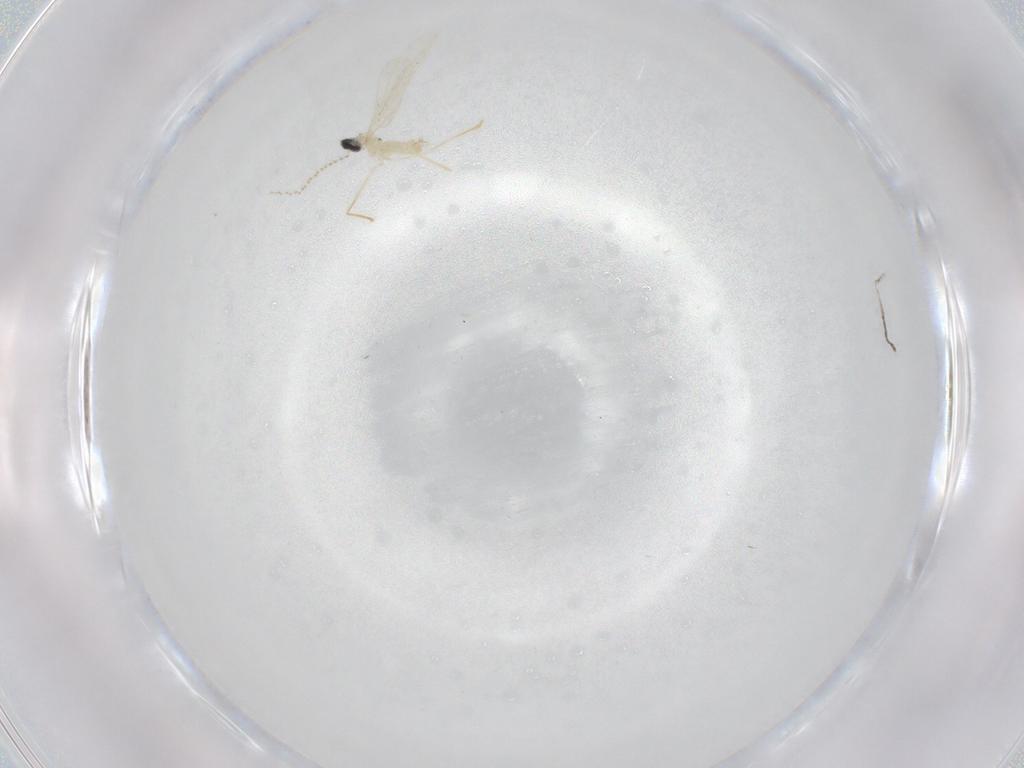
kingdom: Animalia
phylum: Arthropoda
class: Insecta
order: Diptera
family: Cecidomyiidae
